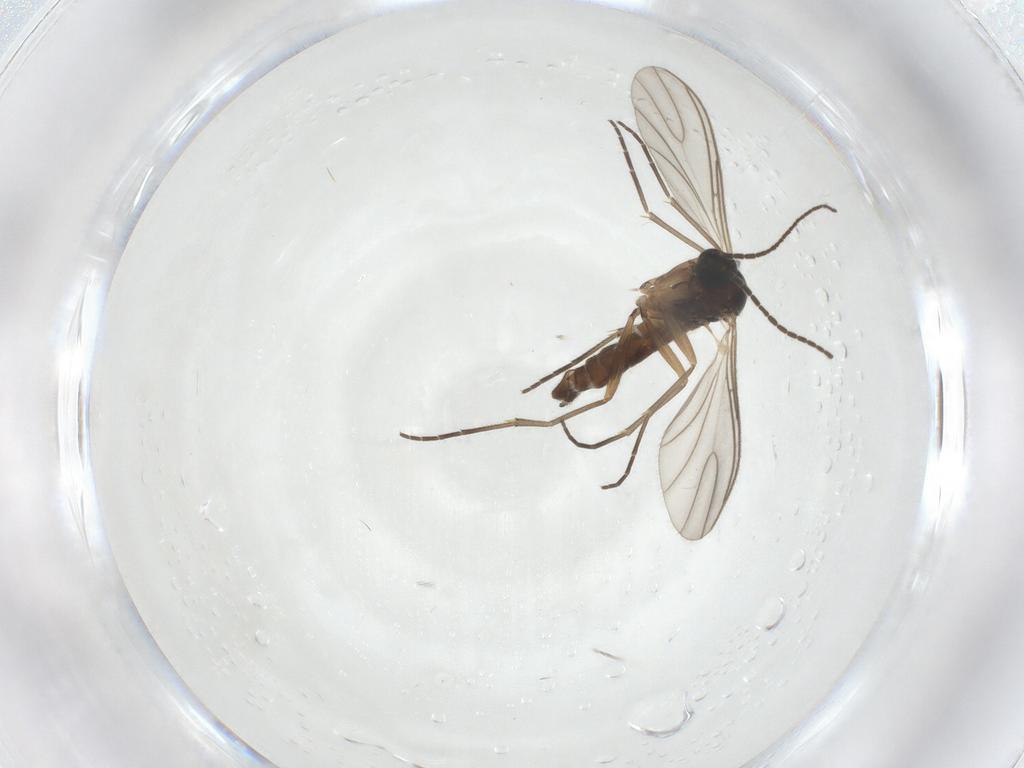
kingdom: Animalia
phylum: Arthropoda
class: Insecta
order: Diptera
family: Sciaridae
